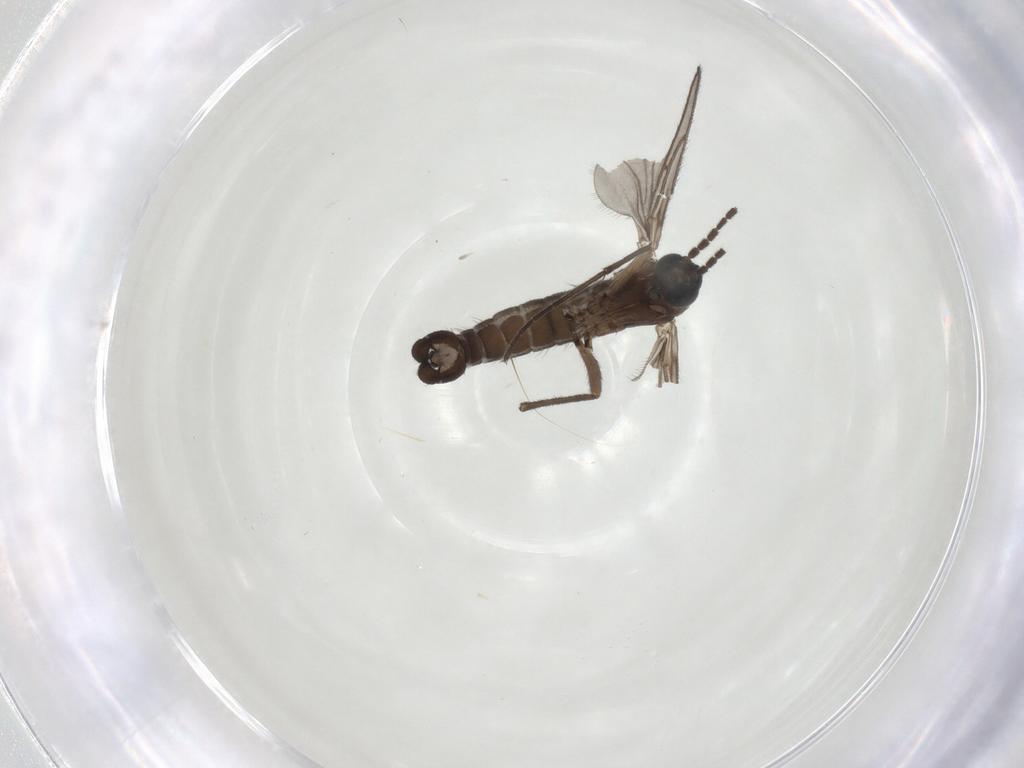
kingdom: Animalia
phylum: Arthropoda
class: Insecta
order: Diptera
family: Sciaridae
